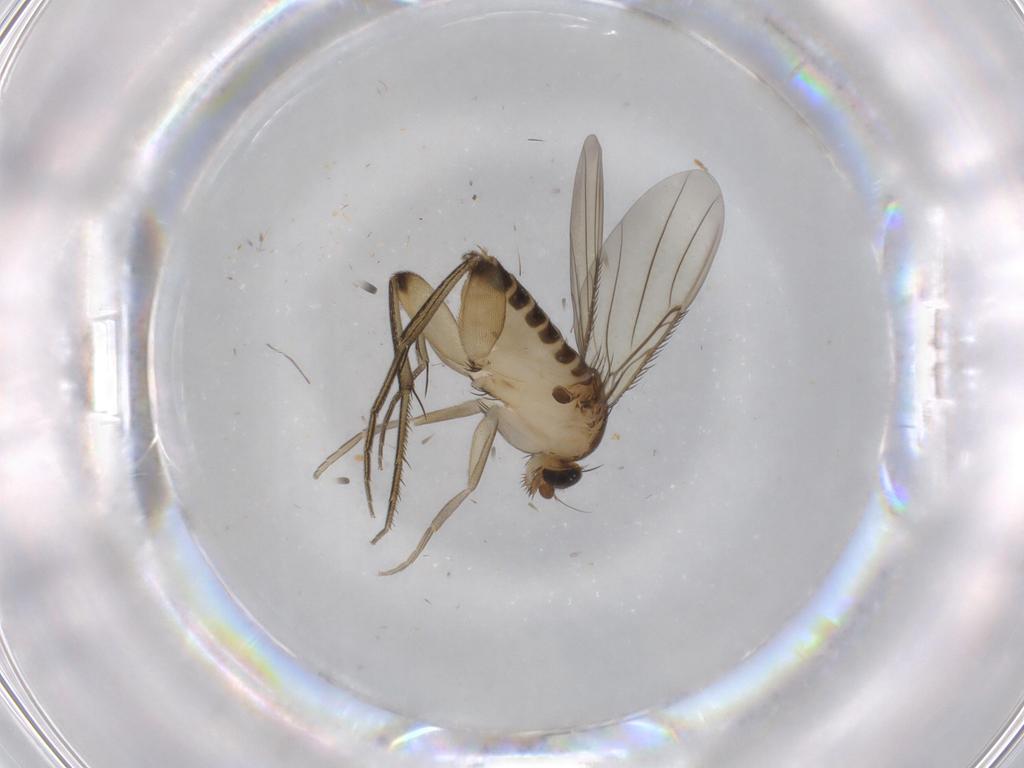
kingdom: Animalia
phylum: Arthropoda
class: Insecta
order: Diptera
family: Phoridae
